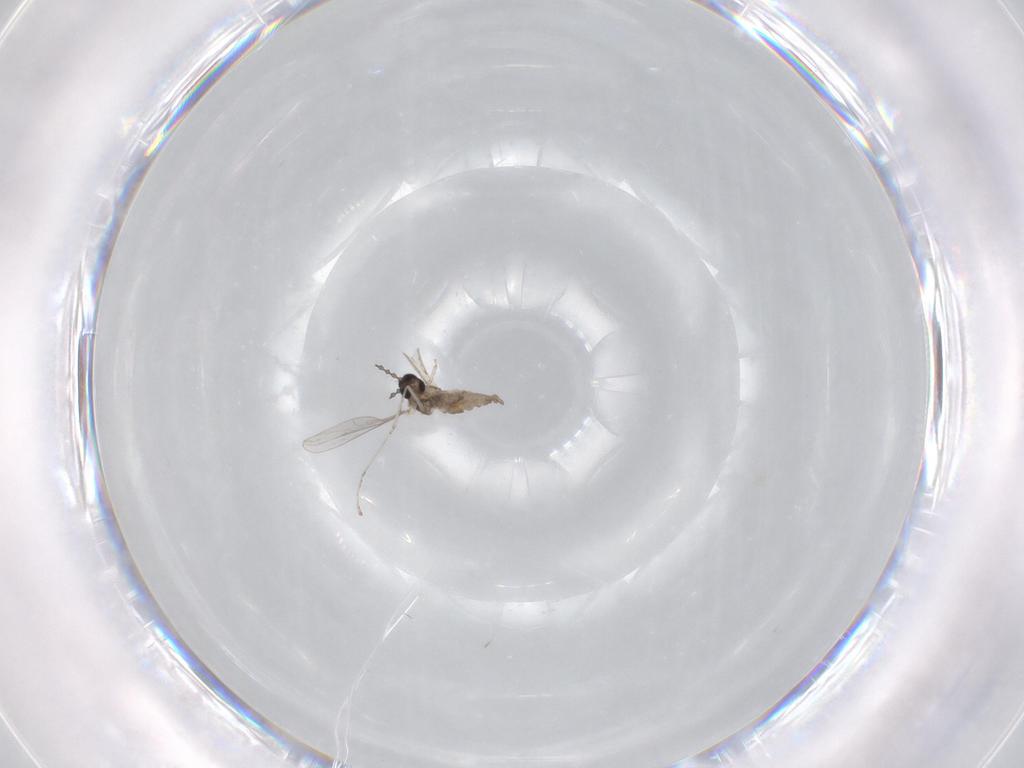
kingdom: Animalia
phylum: Arthropoda
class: Insecta
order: Diptera
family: Cecidomyiidae
